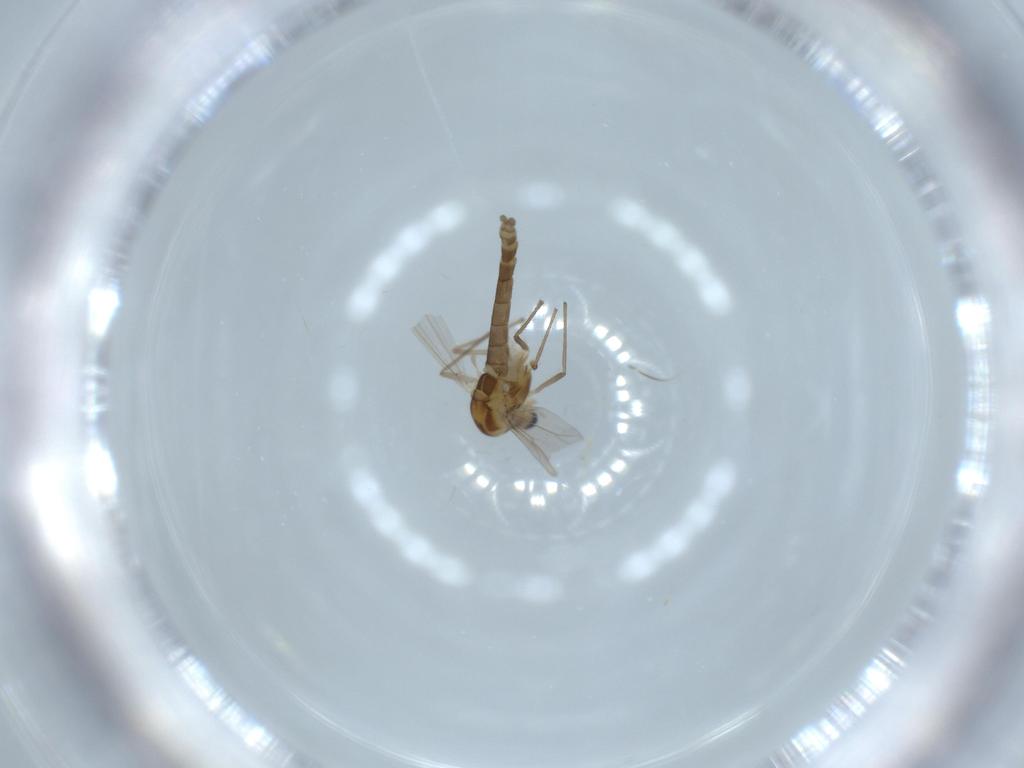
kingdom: Animalia
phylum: Arthropoda
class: Insecta
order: Diptera
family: Chironomidae
